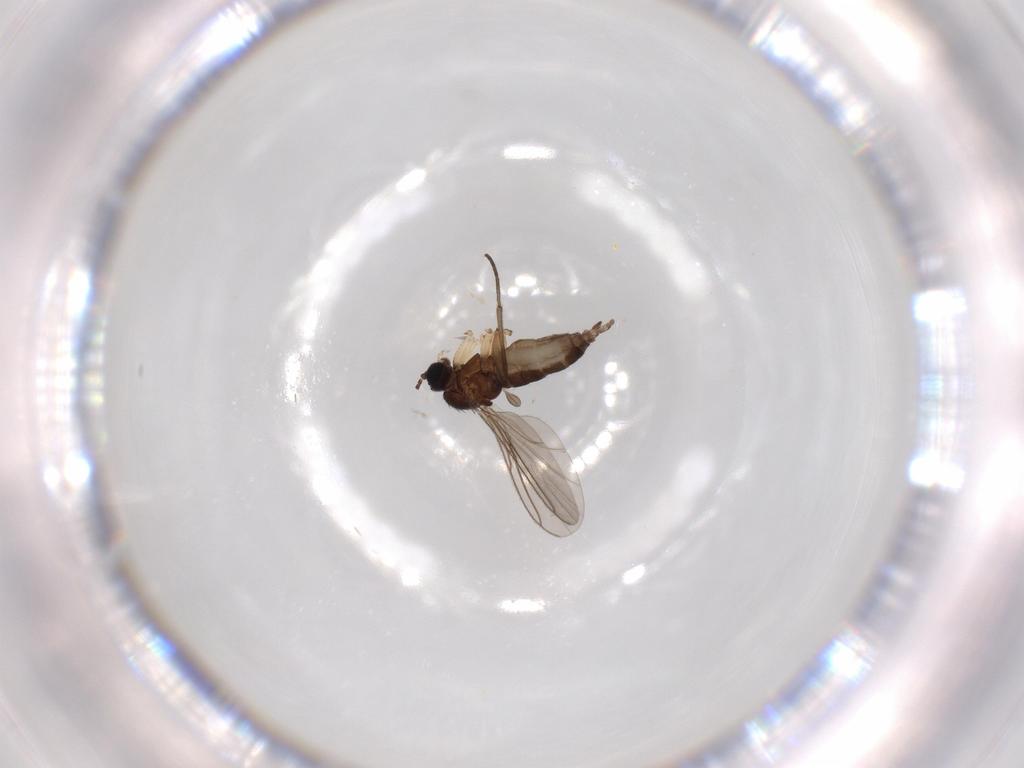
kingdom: Animalia
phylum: Arthropoda
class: Insecta
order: Diptera
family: Sciaridae
